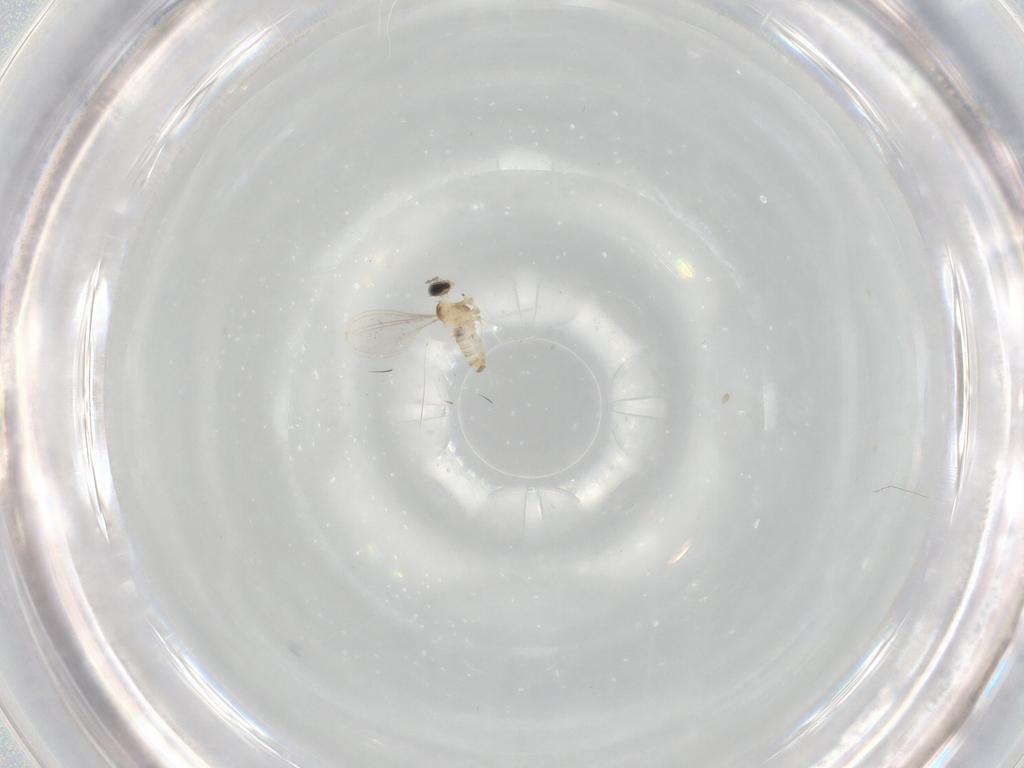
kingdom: Animalia
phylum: Arthropoda
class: Insecta
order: Diptera
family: Cecidomyiidae
